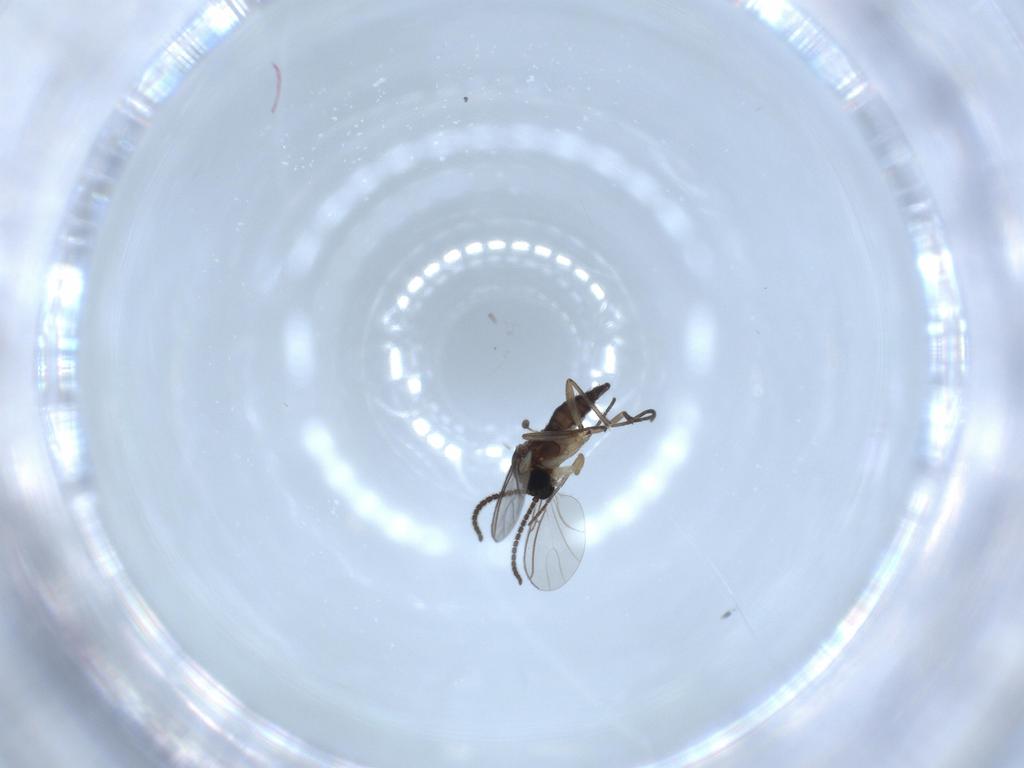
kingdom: Animalia
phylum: Arthropoda
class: Insecta
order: Diptera
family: Sciaridae
